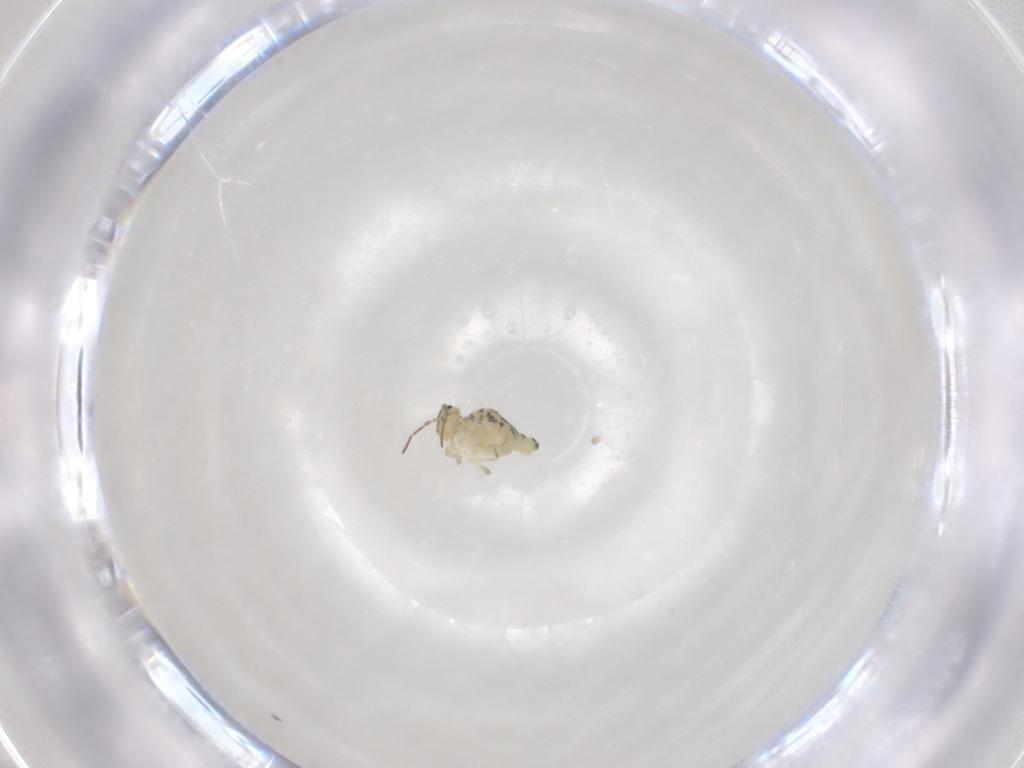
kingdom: Animalia
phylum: Arthropoda
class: Collembola
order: Symphypleona
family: Bourletiellidae
